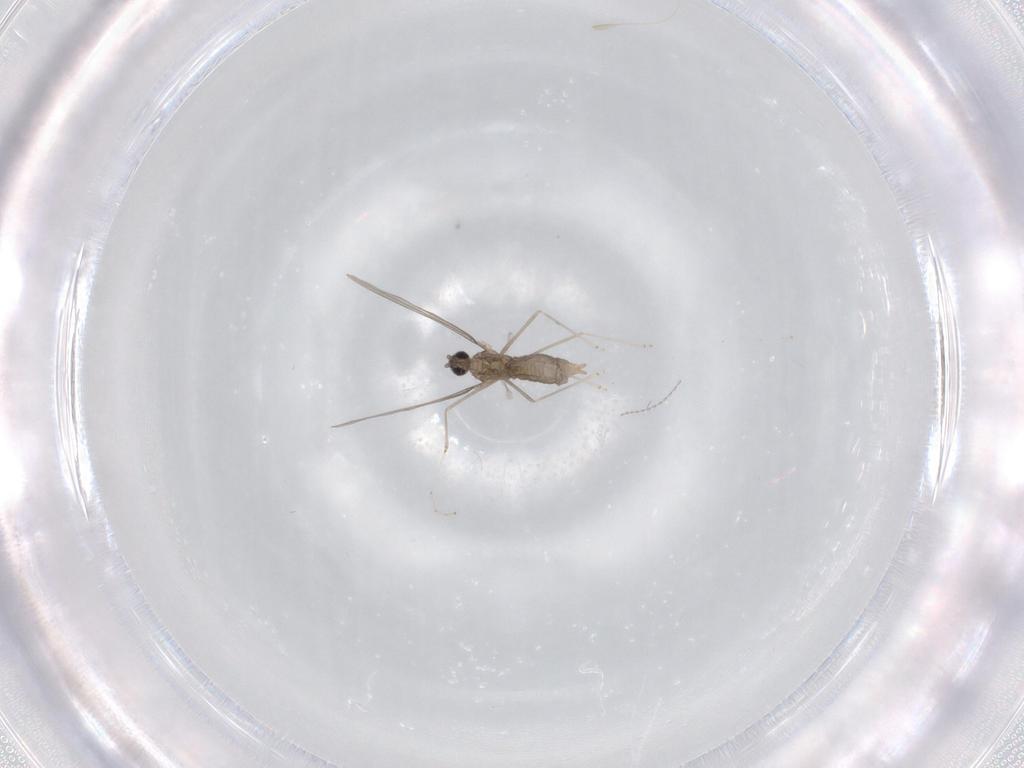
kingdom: Animalia
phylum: Arthropoda
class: Insecta
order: Diptera
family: Cecidomyiidae
